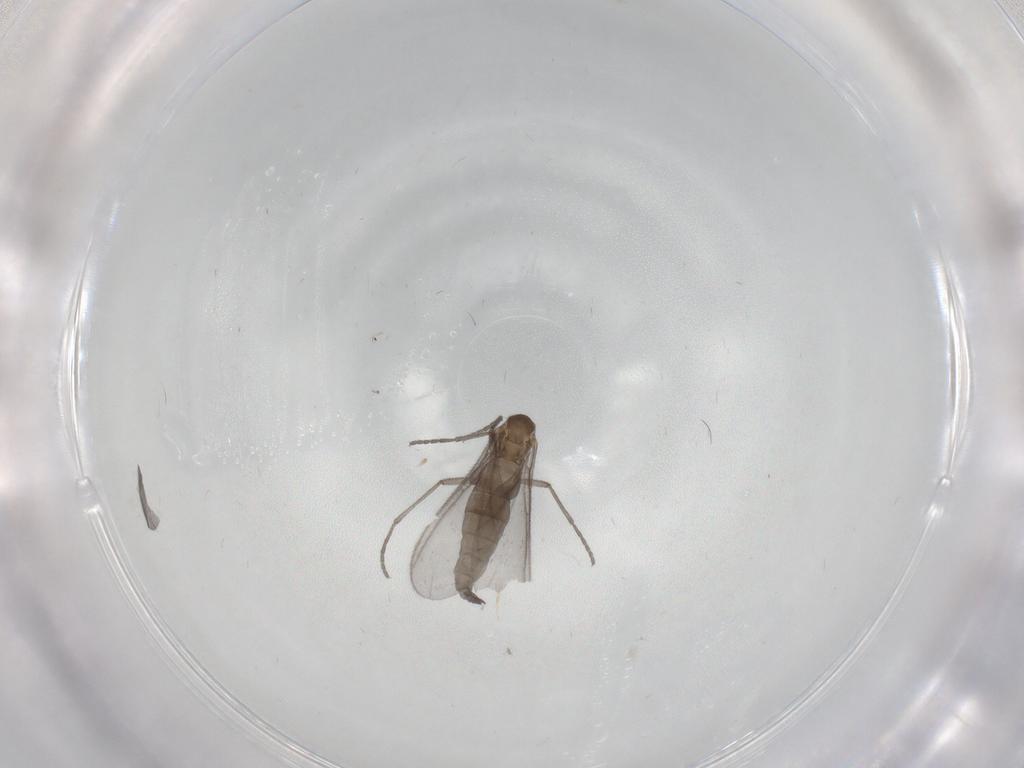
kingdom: Animalia
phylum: Arthropoda
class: Insecta
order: Diptera
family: Sciaridae
